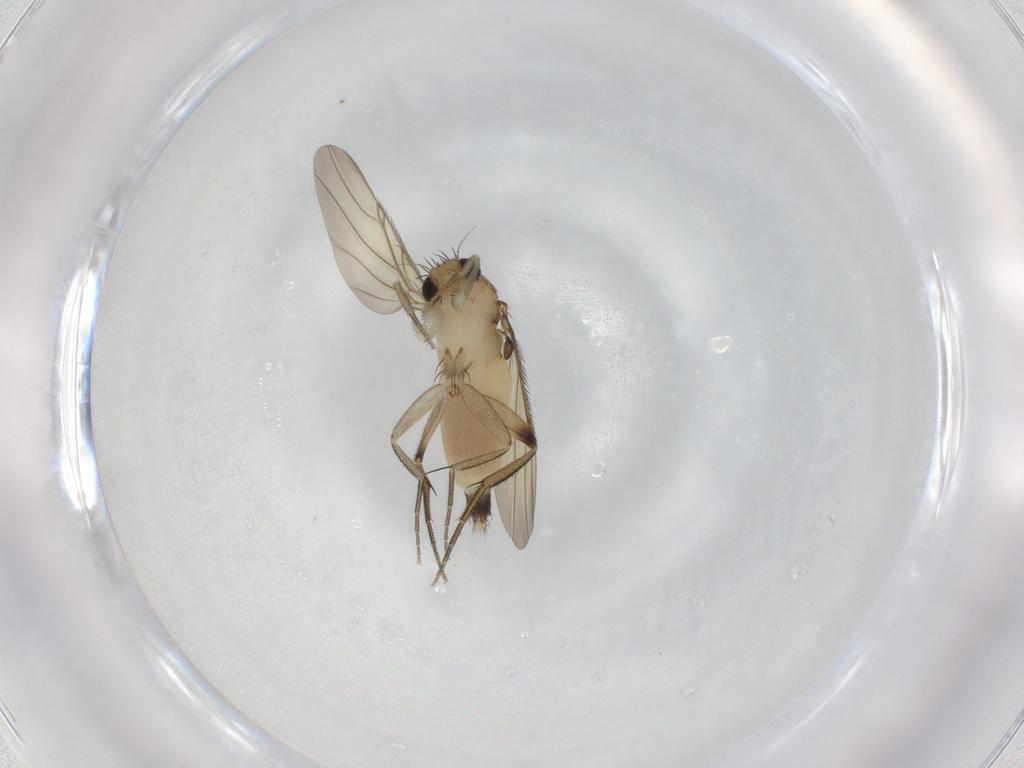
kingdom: Animalia
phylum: Arthropoda
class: Insecta
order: Diptera
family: Phoridae
